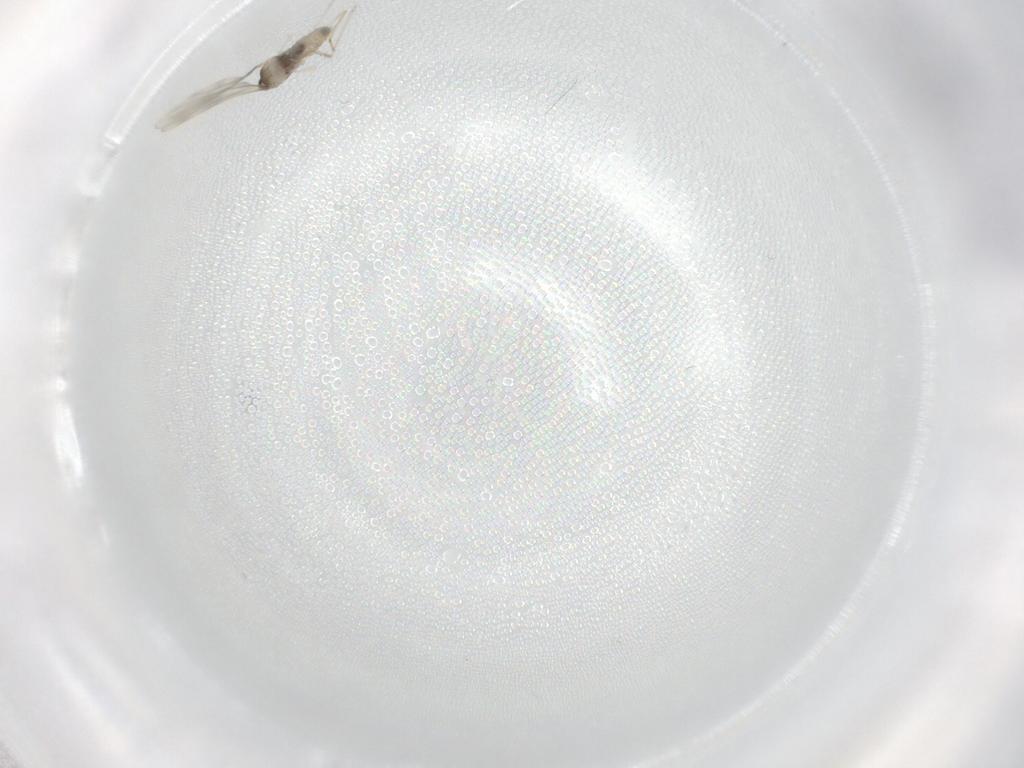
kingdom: Animalia
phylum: Arthropoda
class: Insecta
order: Diptera
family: Cecidomyiidae
